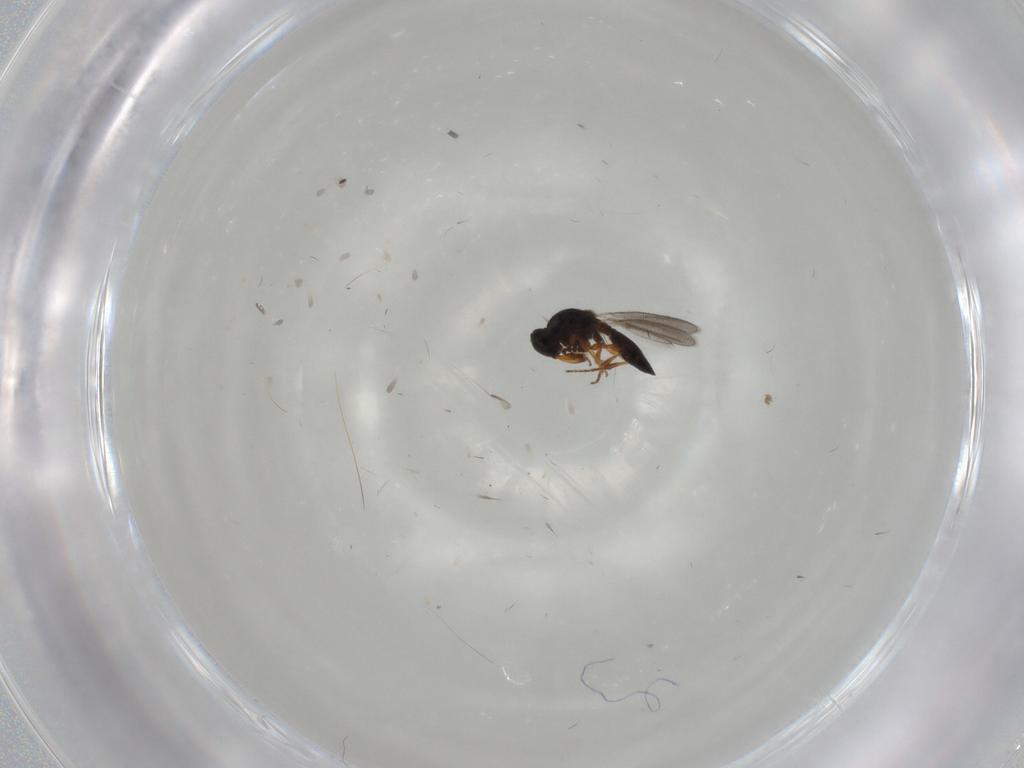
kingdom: Animalia
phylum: Arthropoda
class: Insecta
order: Hymenoptera
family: Platygastridae
